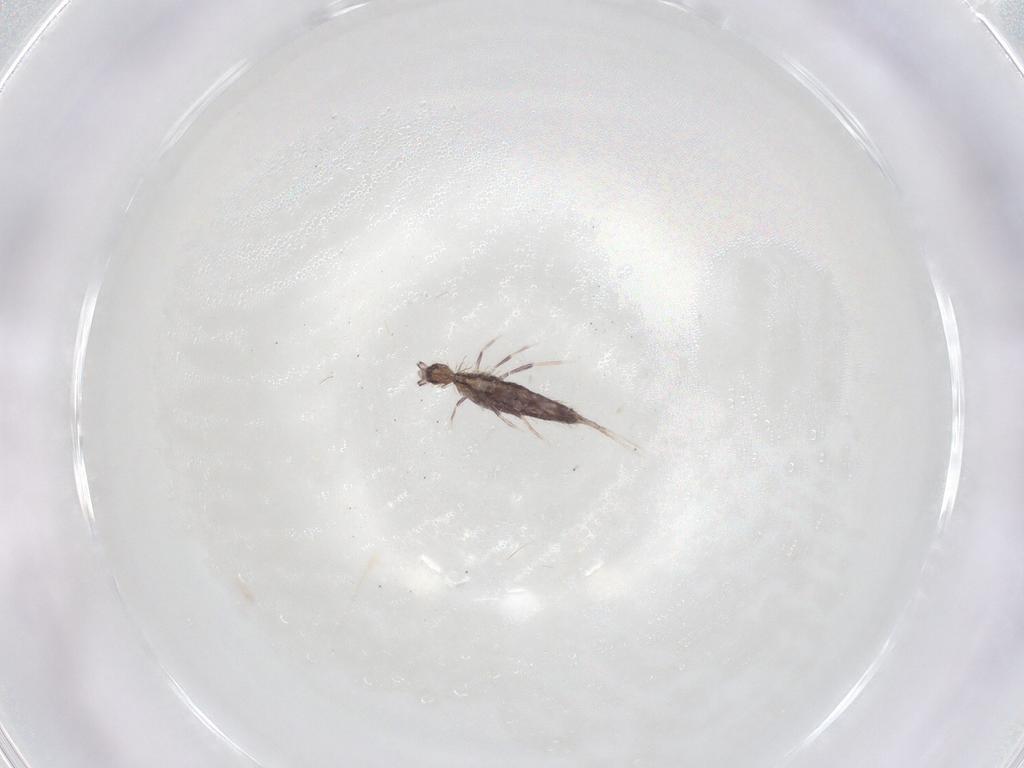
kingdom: Animalia
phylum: Arthropoda
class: Collembola
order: Entomobryomorpha
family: Entomobryidae
